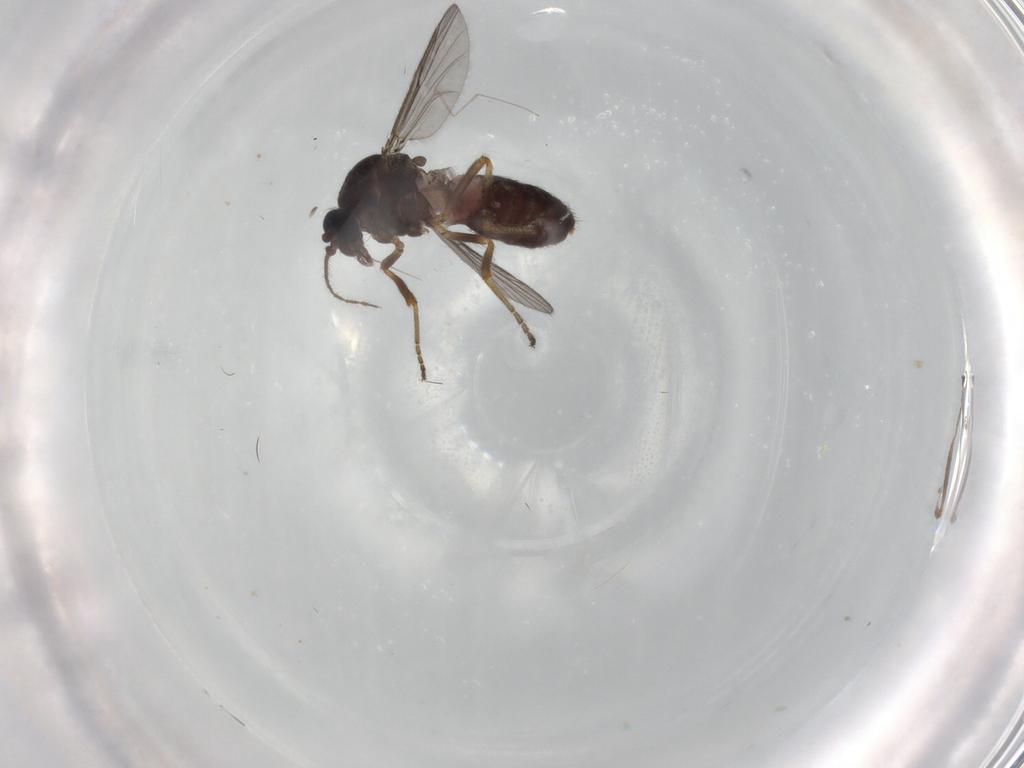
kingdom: Animalia
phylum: Arthropoda
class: Insecta
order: Diptera
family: Ceratopogonidae
